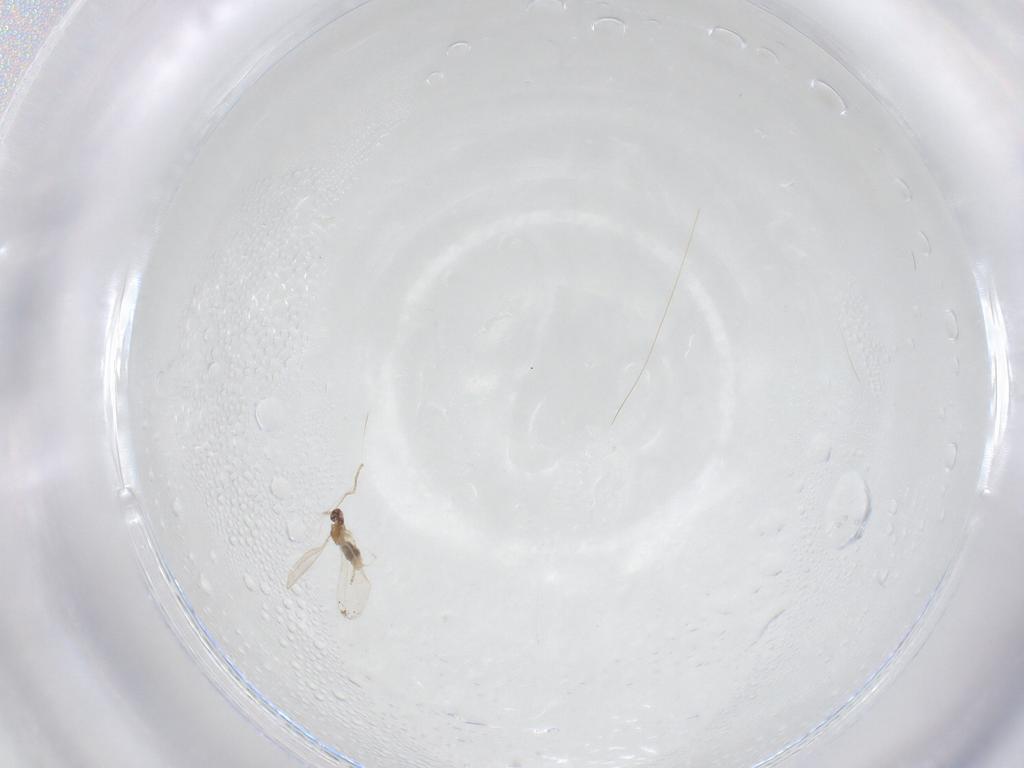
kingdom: Animalia
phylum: Arthropoda
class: Insecta
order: Diptera
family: Cecidomyiidae
